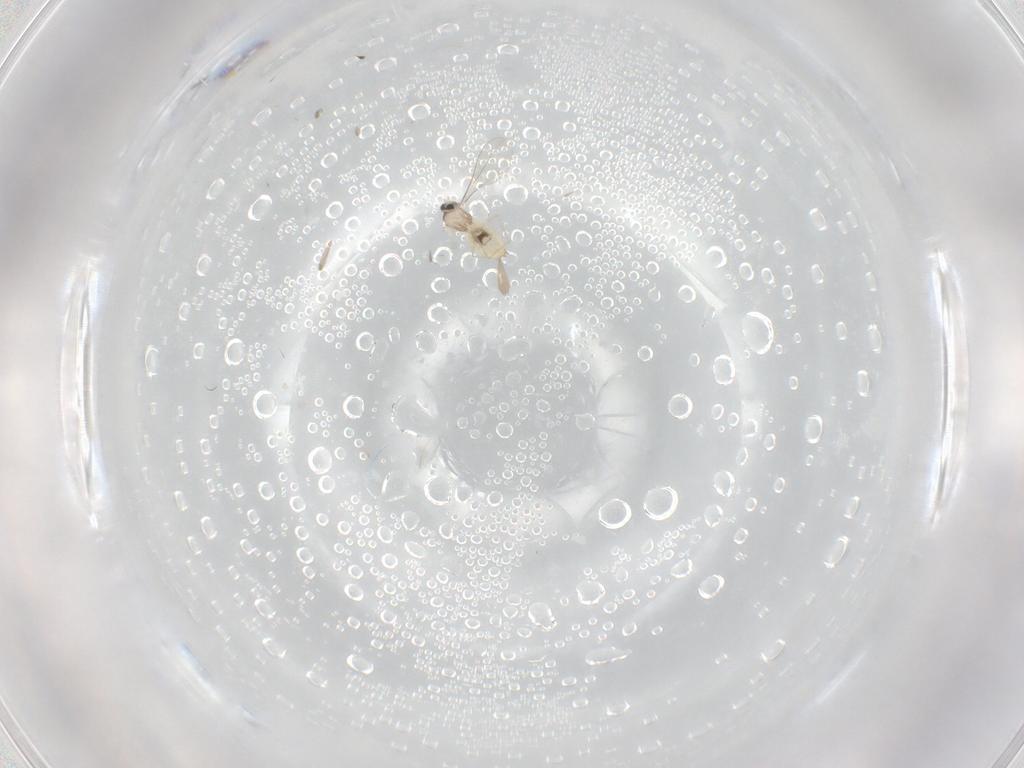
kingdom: Animalia
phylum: Arthropoda
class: Insecta
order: Diptera
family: Cecidomyiidae
